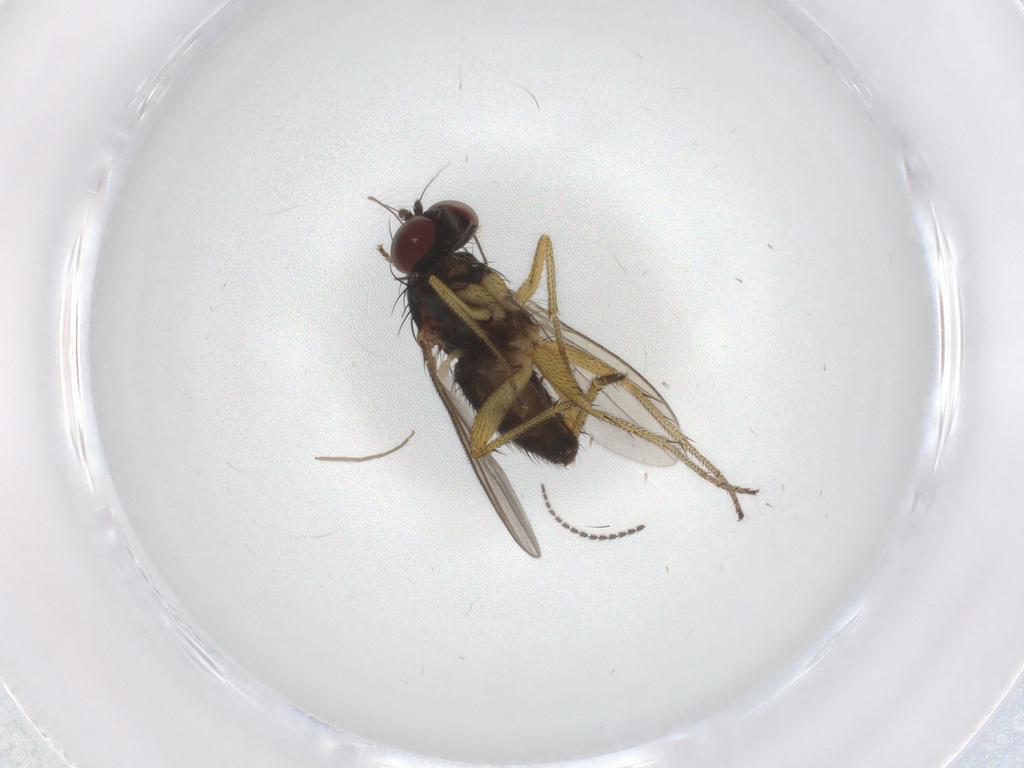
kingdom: Animalia
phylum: Arthropoda
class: Insecta
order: Diptera
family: Chironomidae
